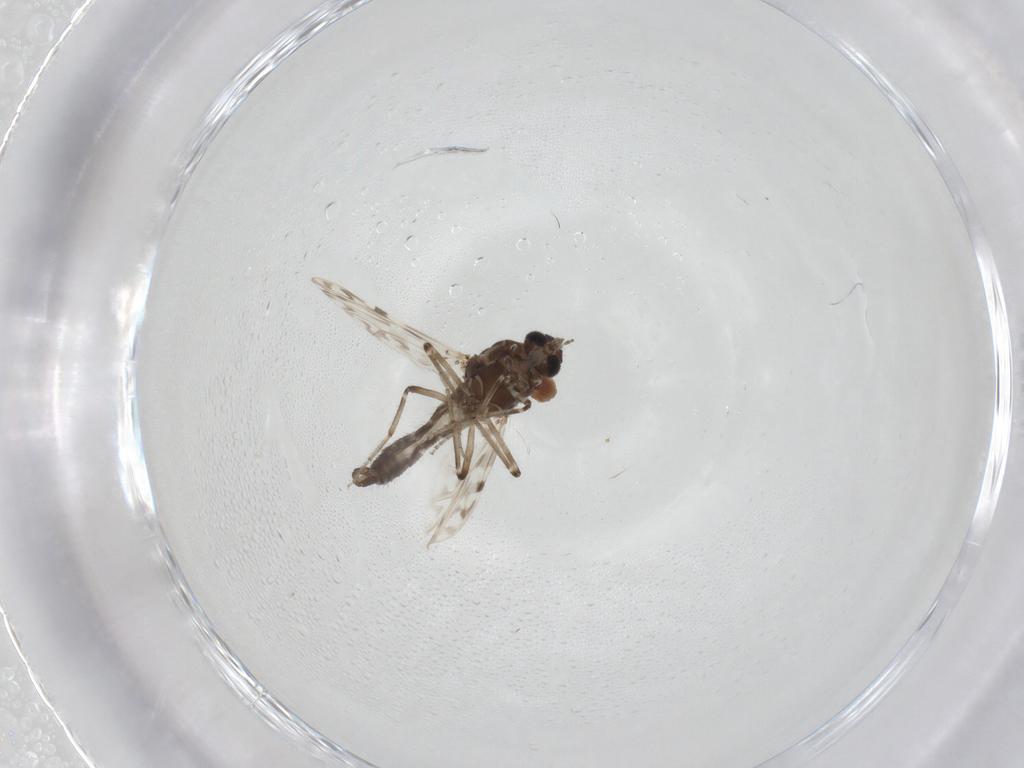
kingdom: Animalia
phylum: Arthropoda
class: Insecta
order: Diptera
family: Ceratopogonidae
